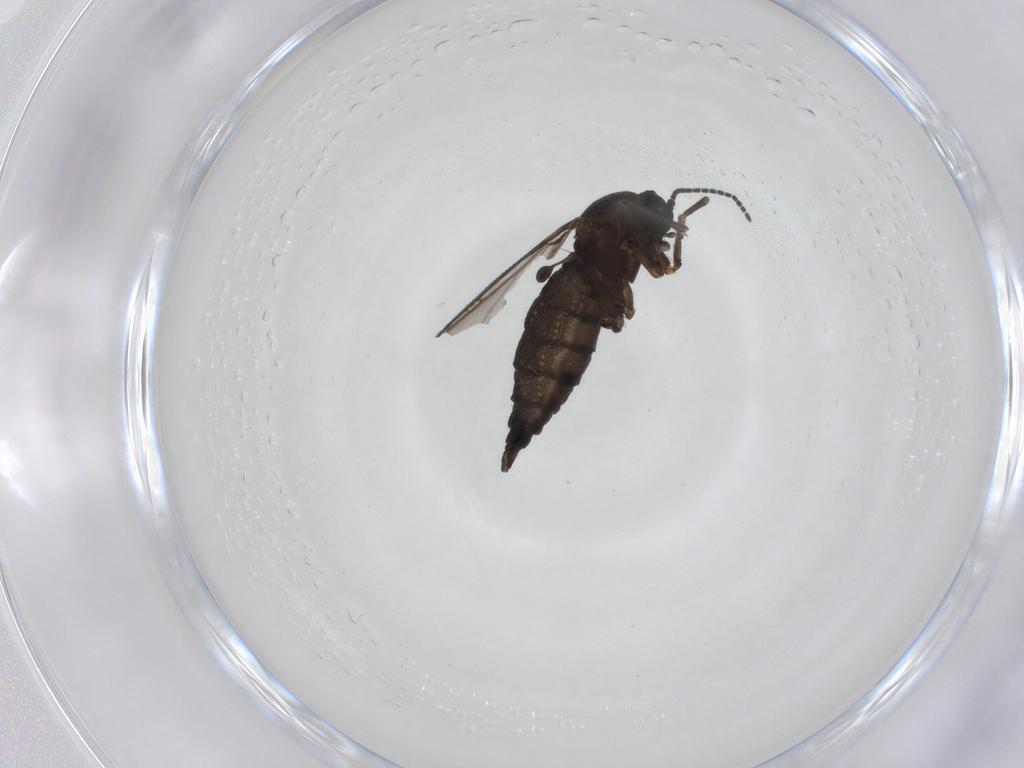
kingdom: Animalia
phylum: Arthropoda
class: Insecta
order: Diptera
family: Sciaridae
